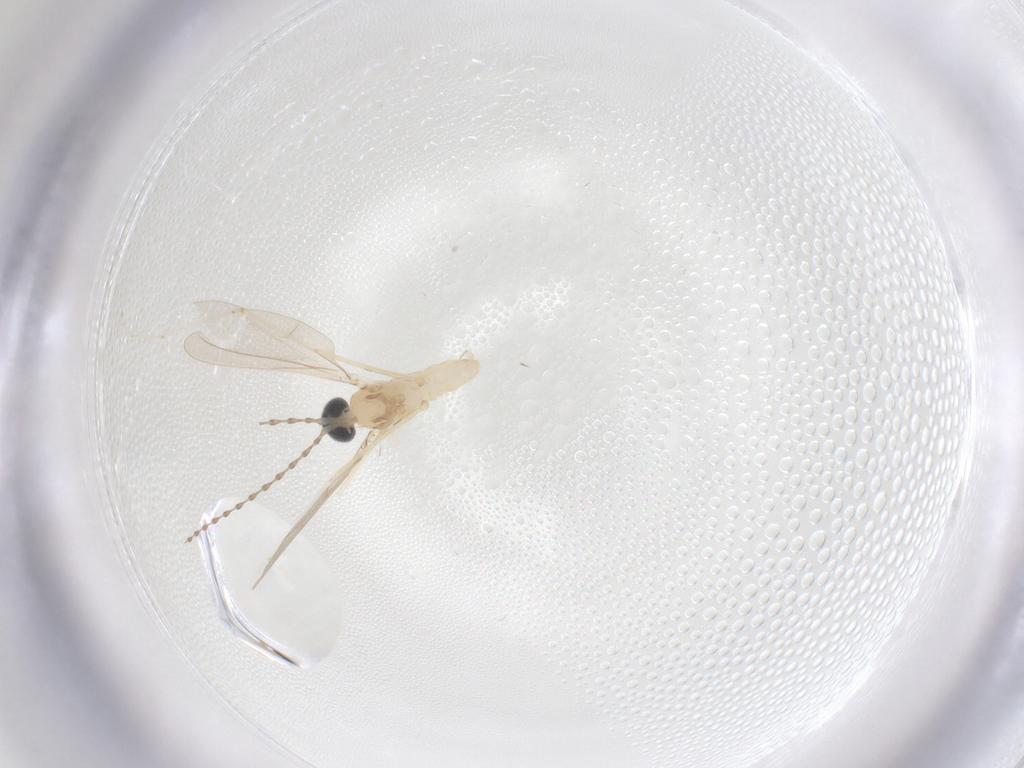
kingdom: Animalia
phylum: Arthropoda
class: Insecta
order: Diptera
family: Cecidomyiidae
